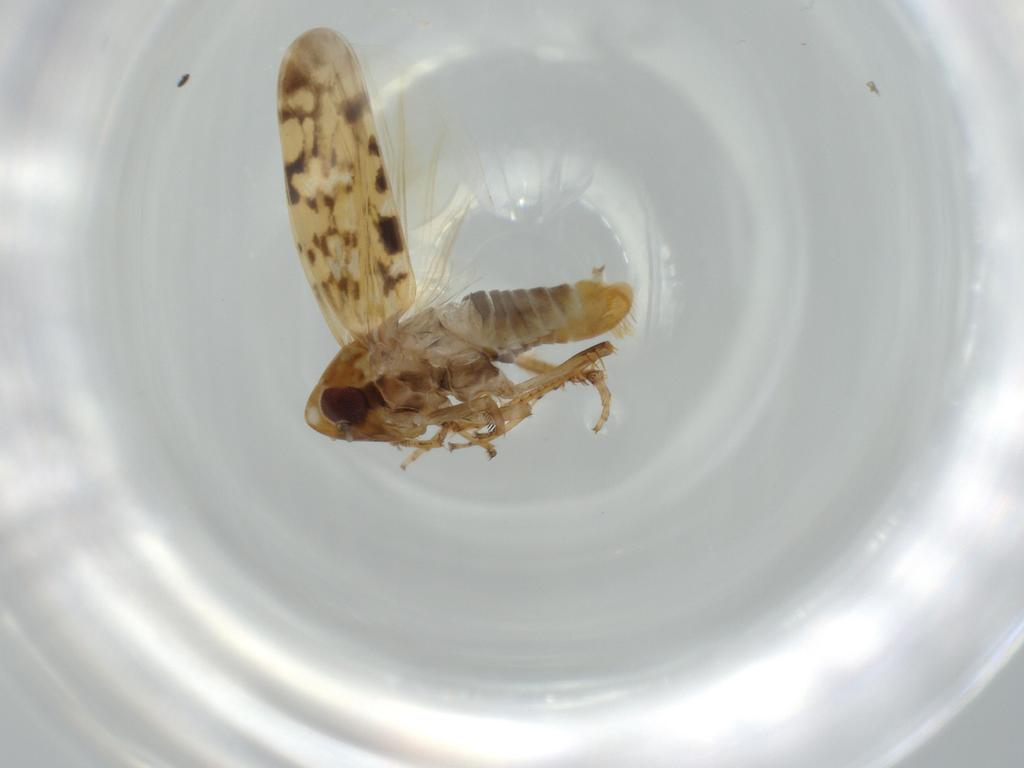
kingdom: Animalia
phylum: Arthropoda
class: Insecta
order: Hemiptera
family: Cicadellidae
